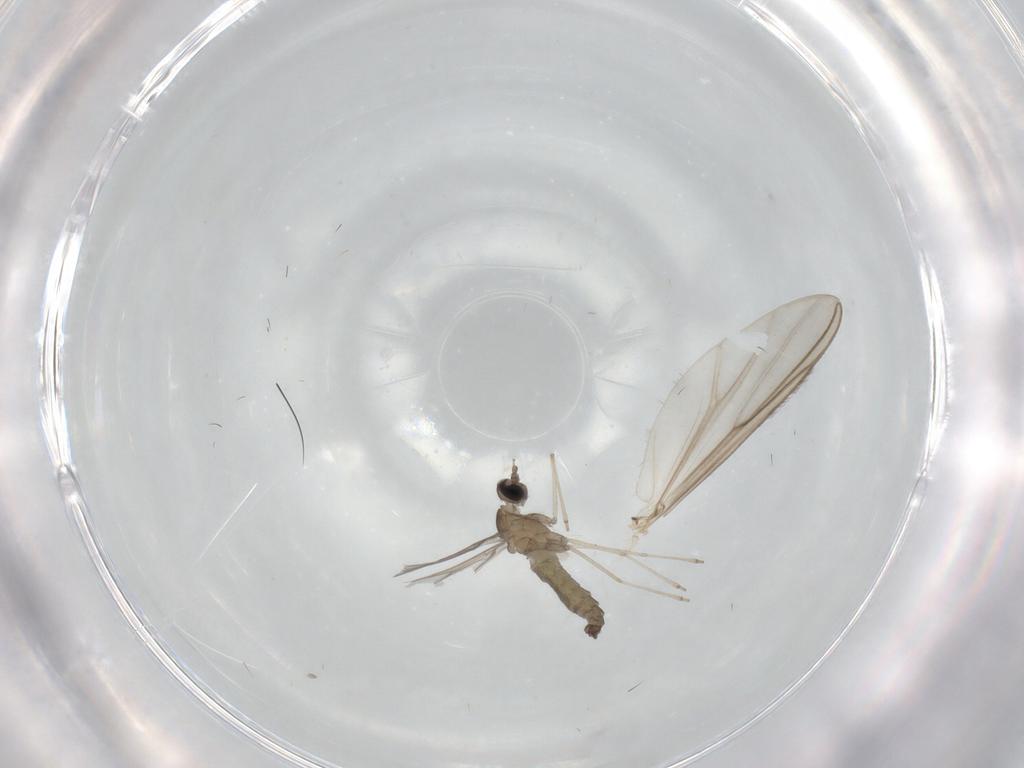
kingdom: Animalia
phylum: Arthropoda
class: Insecta
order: Diptera
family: Chironomidae
